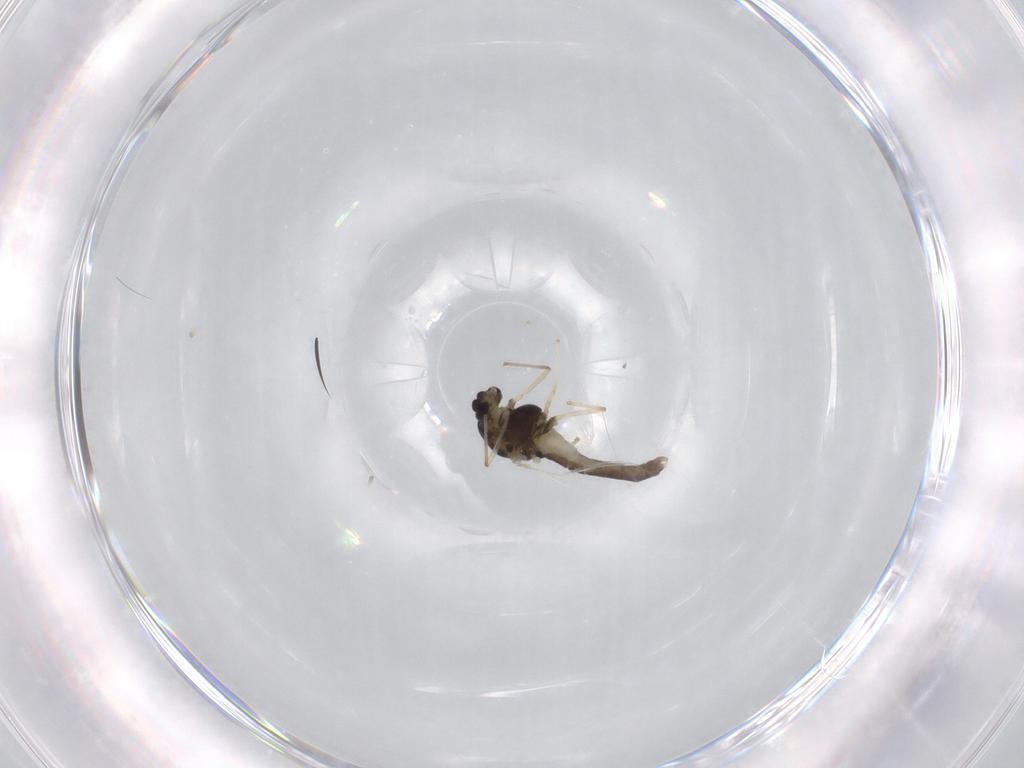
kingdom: Animalia
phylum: Arthropoda
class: Insecta
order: Diptera
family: Chironomidae
